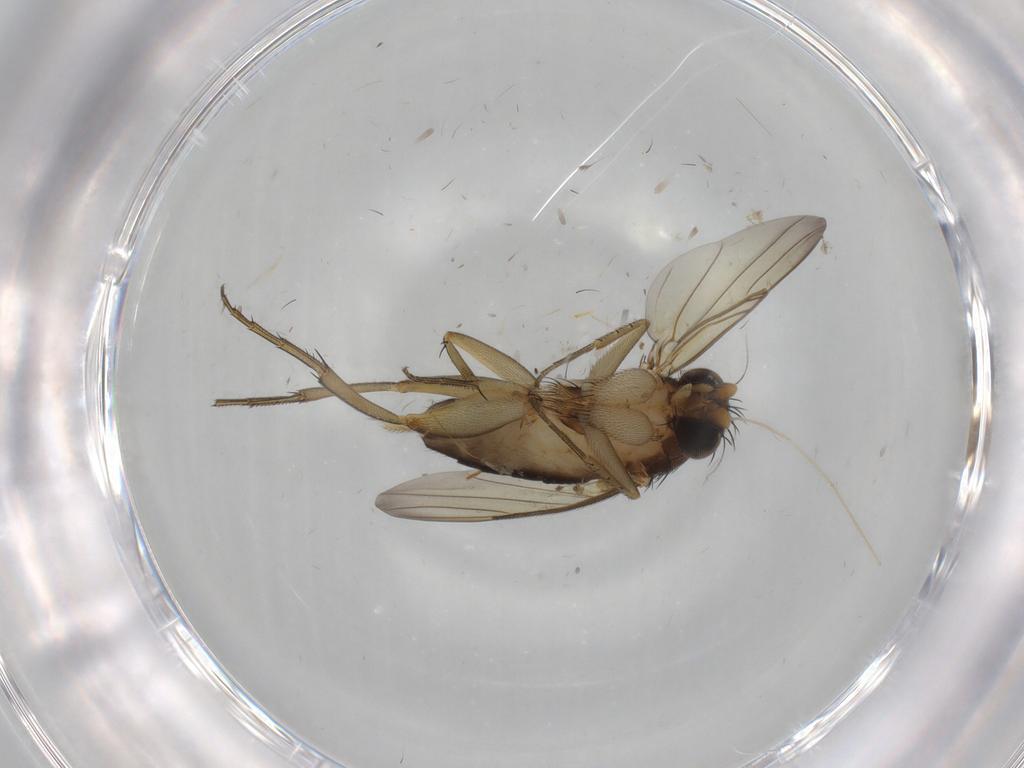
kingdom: Animalia
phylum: Arthropoda
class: Insecta
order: Diptera
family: Phoridae
